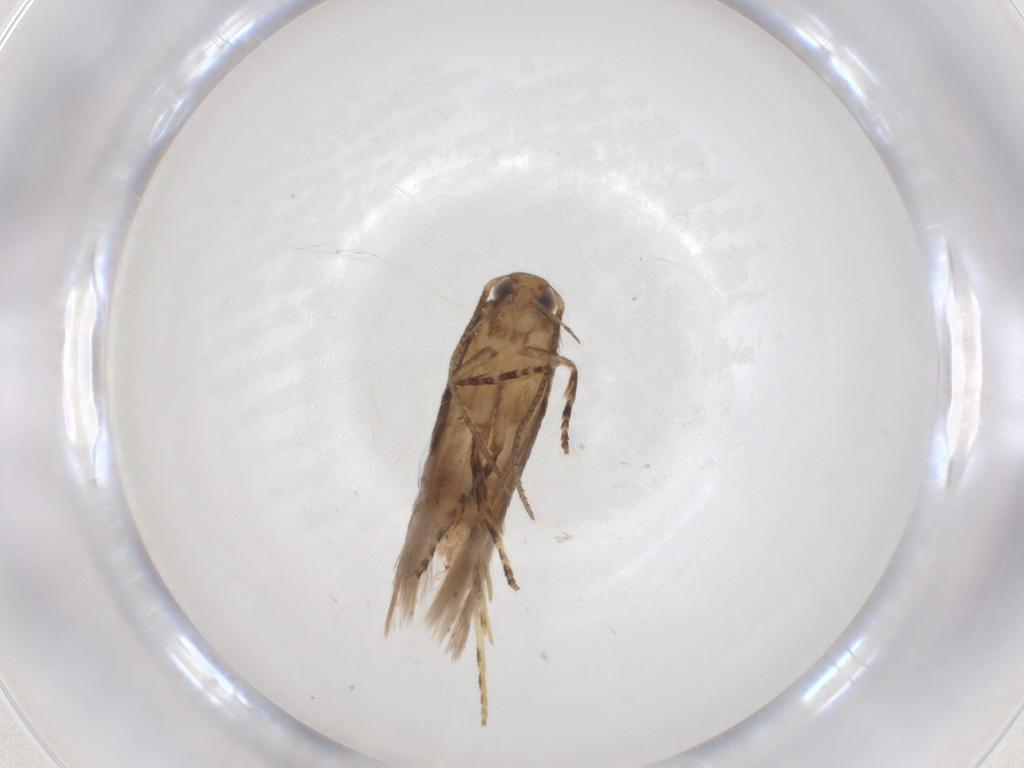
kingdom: Animalia
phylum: Arthropoda
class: Insecta
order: Lepidoptera
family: Gelechiidae
